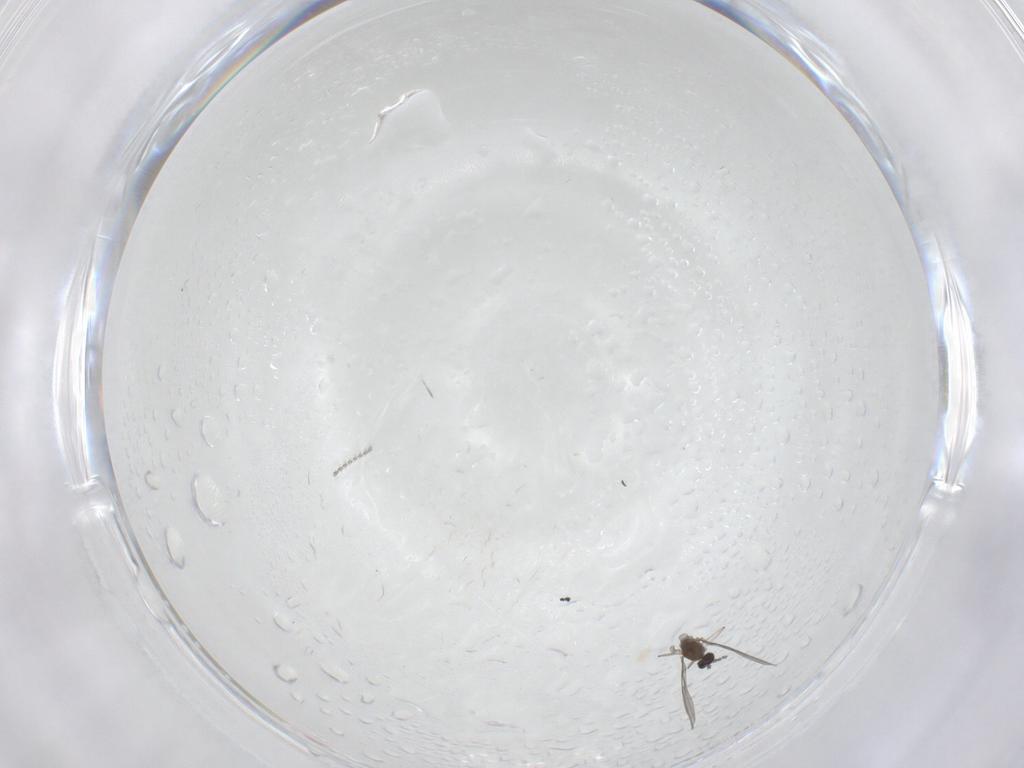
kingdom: Animalia
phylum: Arthropoda
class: Insecta
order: Diptera
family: Cecidomyiidae
